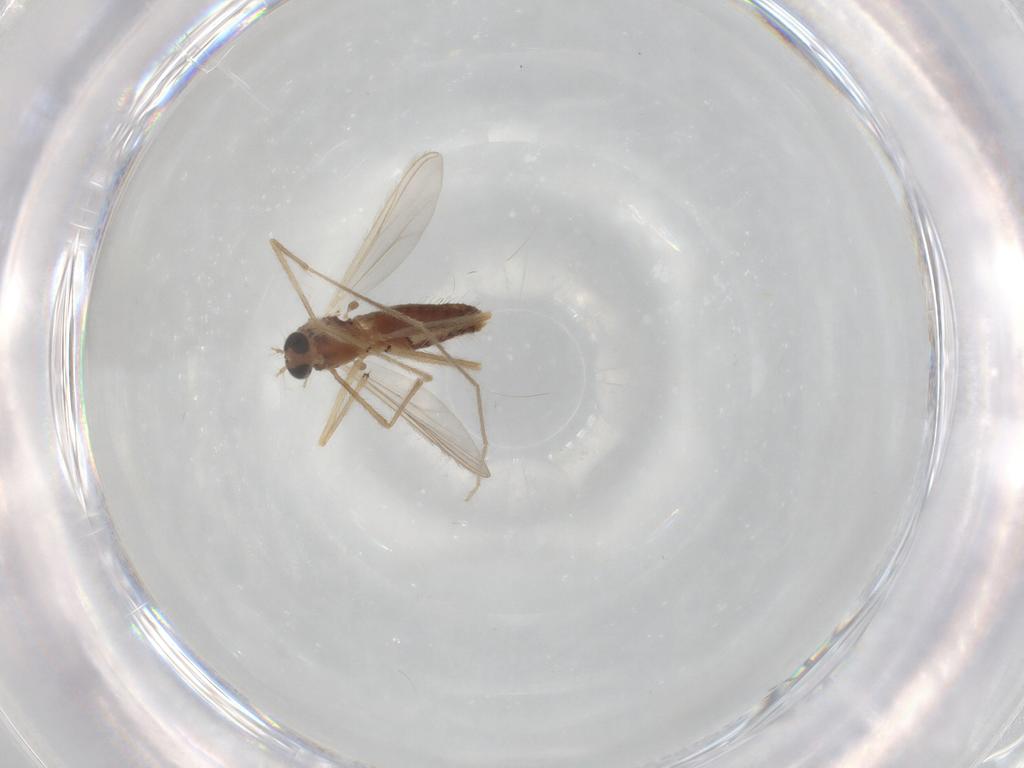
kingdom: Animalia
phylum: Arthropoda
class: Insecta
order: Diptera
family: Chironomidae
